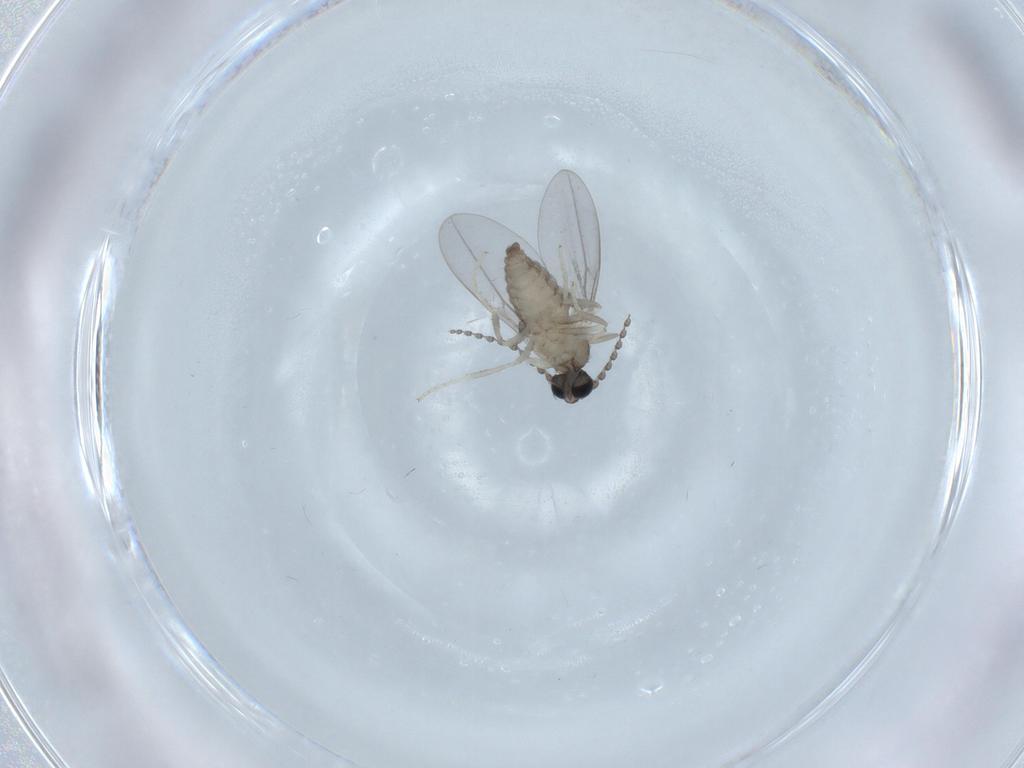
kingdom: Animalia
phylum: Arthropoda
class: Insecta
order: Diptera
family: Cecidomyiidae
